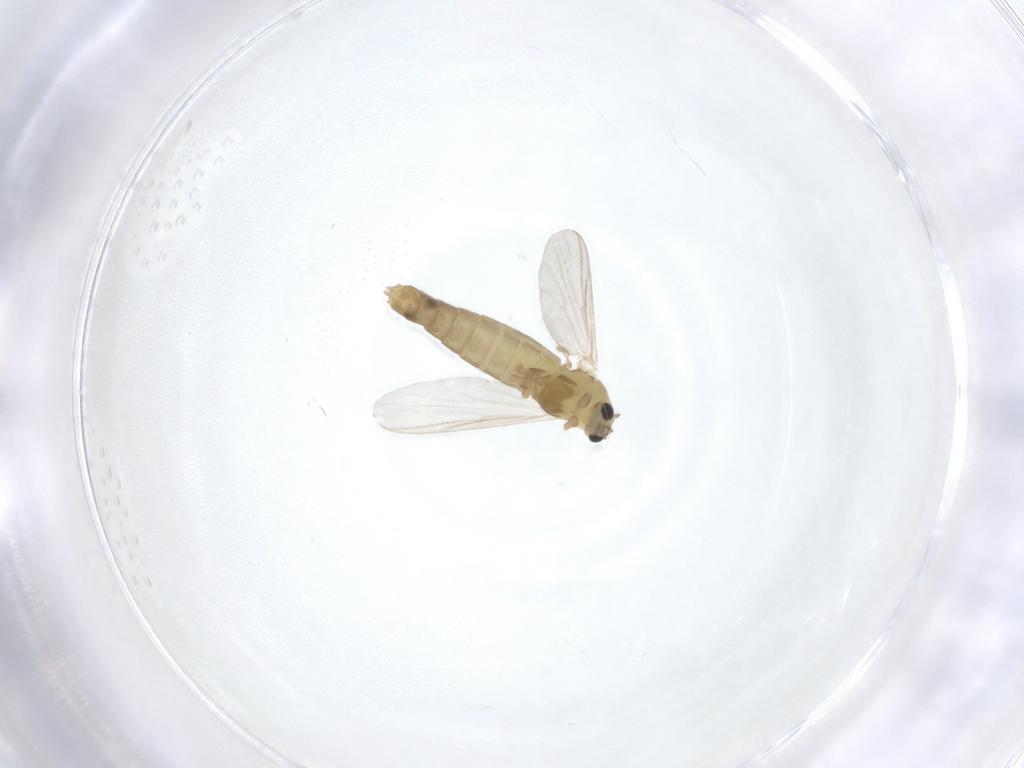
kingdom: Animalia
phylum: Arthropoda
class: Insecta
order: Diptera
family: Chironomidae
